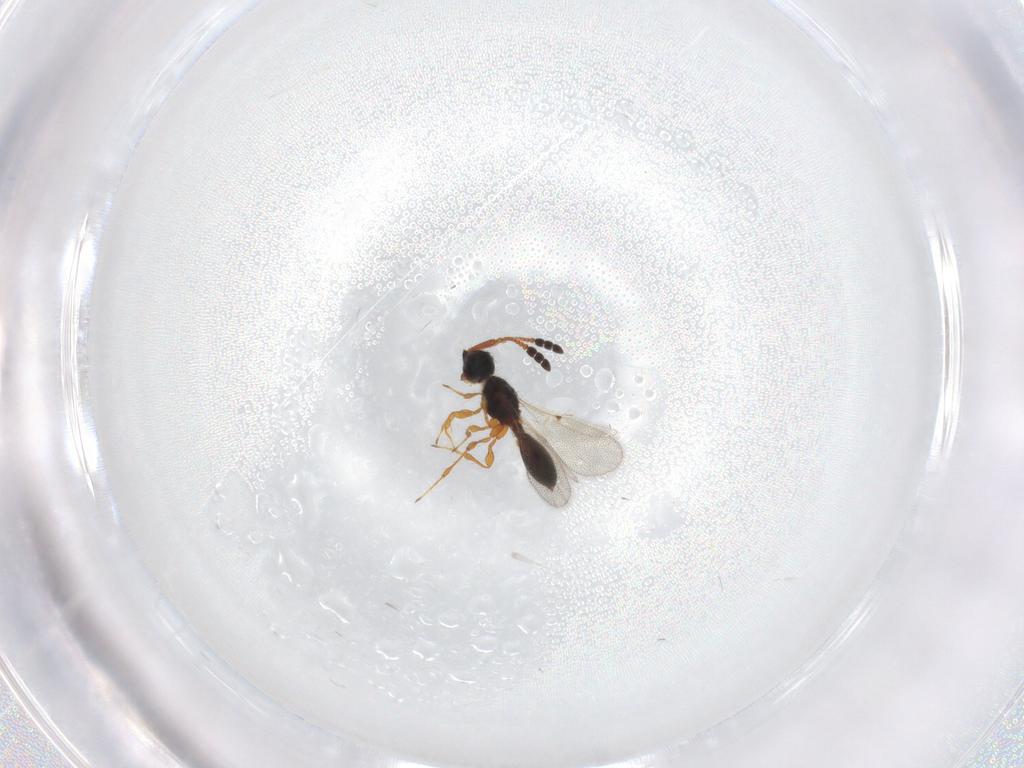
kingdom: Animalia
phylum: Arthropoda
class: Insecta
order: Hymenoptera
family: Diapriidae
